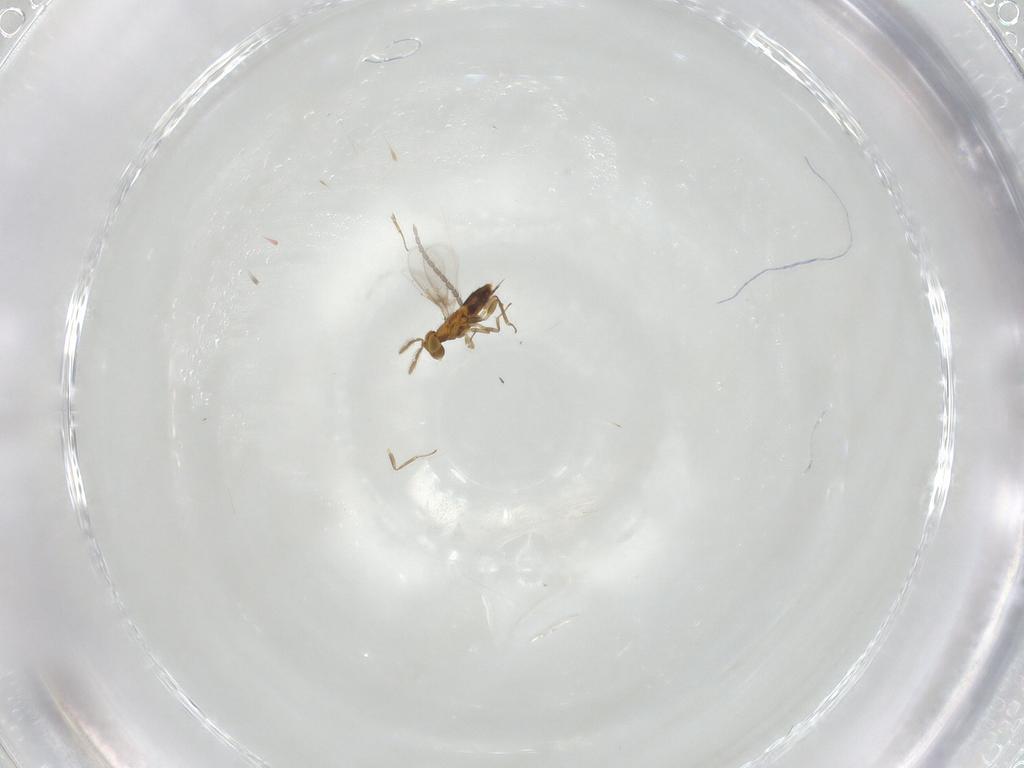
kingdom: Animalia
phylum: Arthropoda
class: Insecta
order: Hymenoptera
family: Aphelinidae
